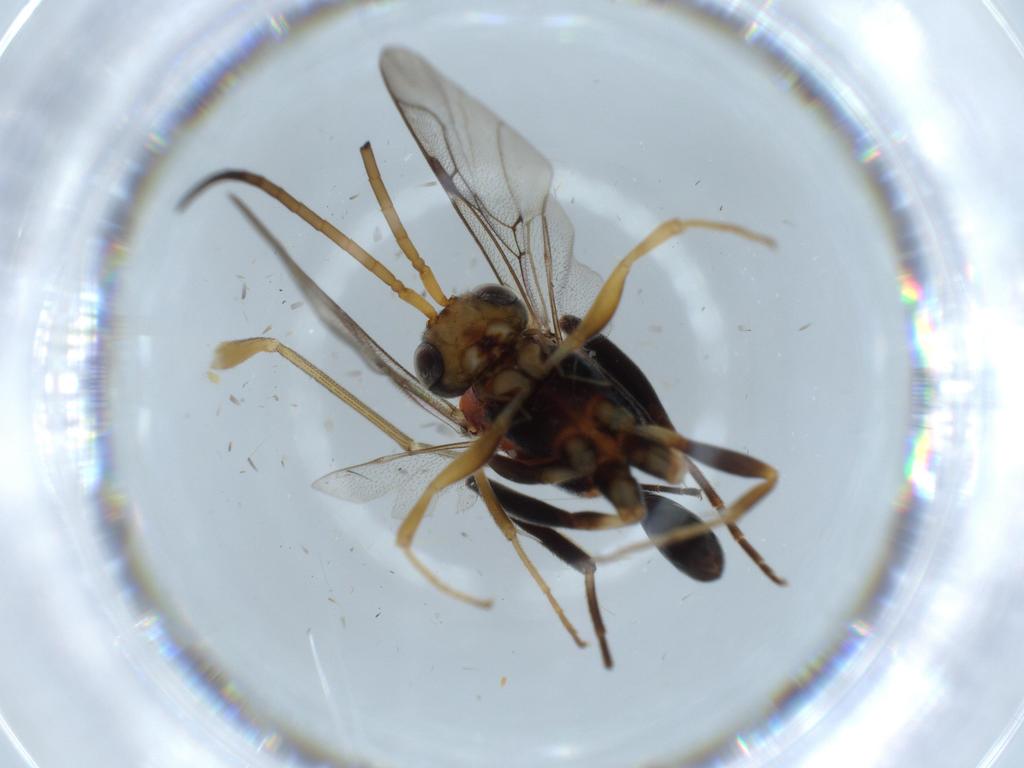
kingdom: Animalia
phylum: Arthropoda
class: Insecta
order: Hymenoptera
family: Evaniidae
